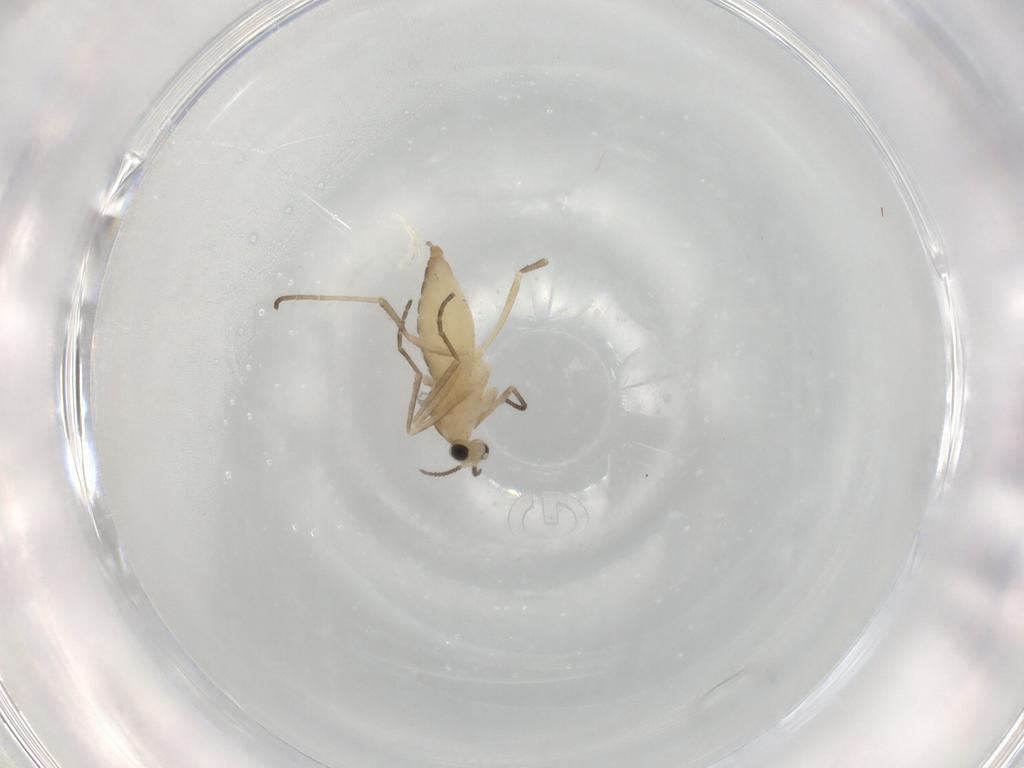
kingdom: Animalia
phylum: Arthropoda
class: Insecta
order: Diptera
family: Cecidomyiidae
